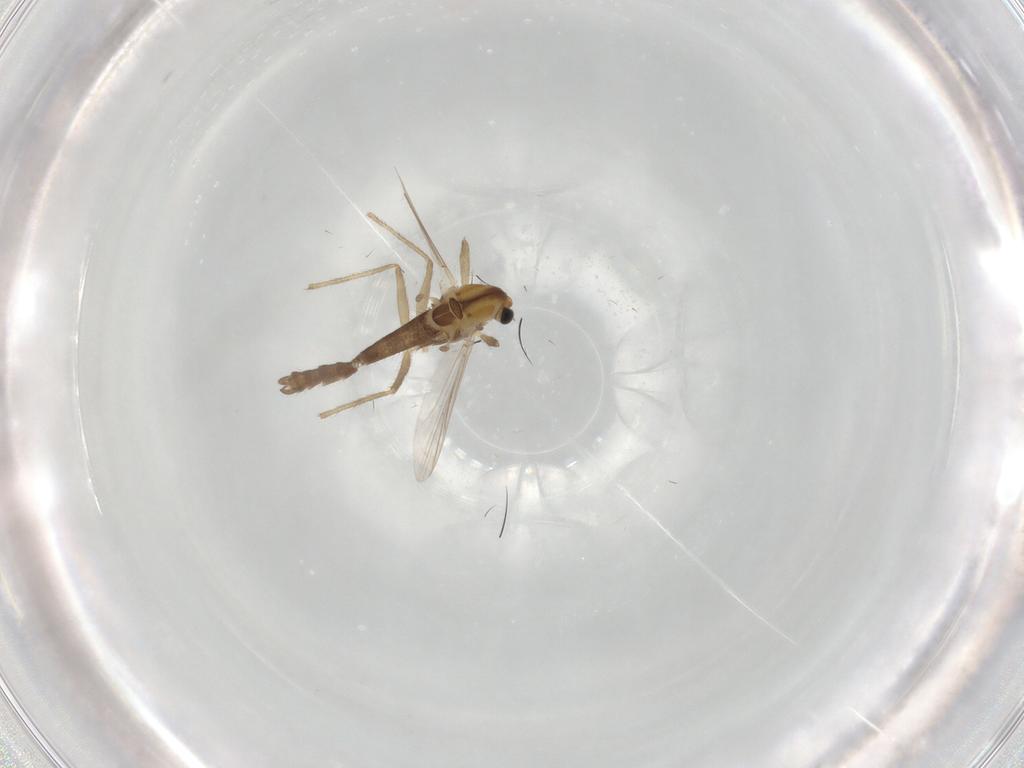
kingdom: Animalia
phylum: Arthropoda
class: Insecta
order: Diptera
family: Chironomidae
